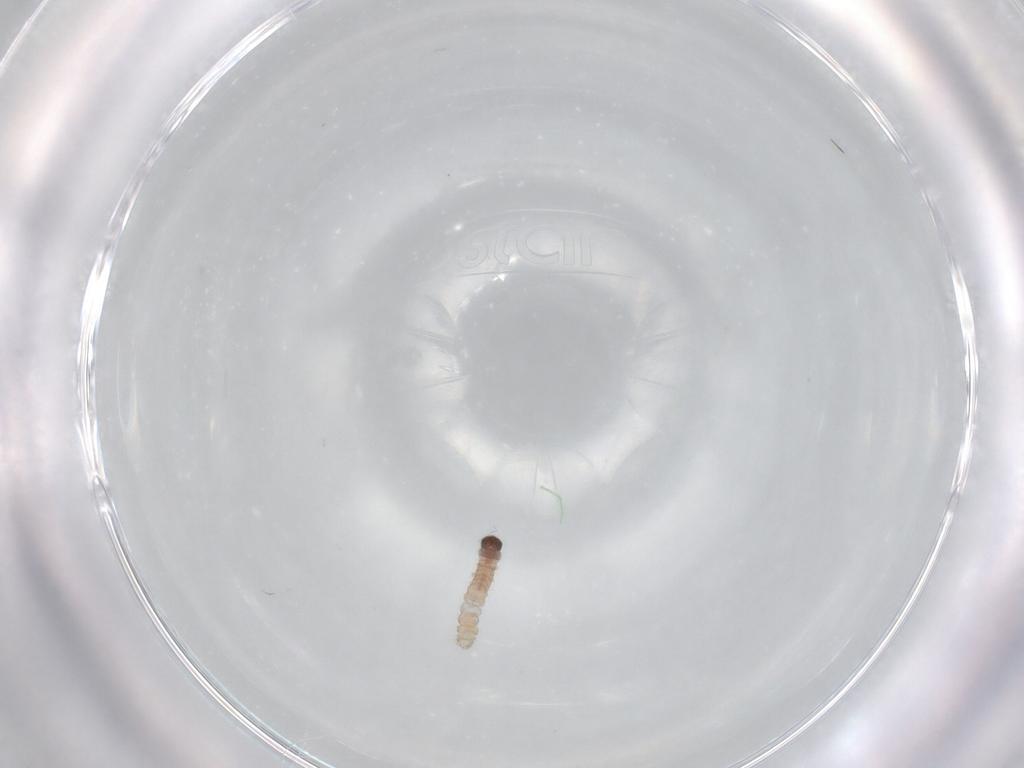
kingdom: Animalia
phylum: Arthropoda
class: Insecta
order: Lepidoptera
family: Gelechiidae
